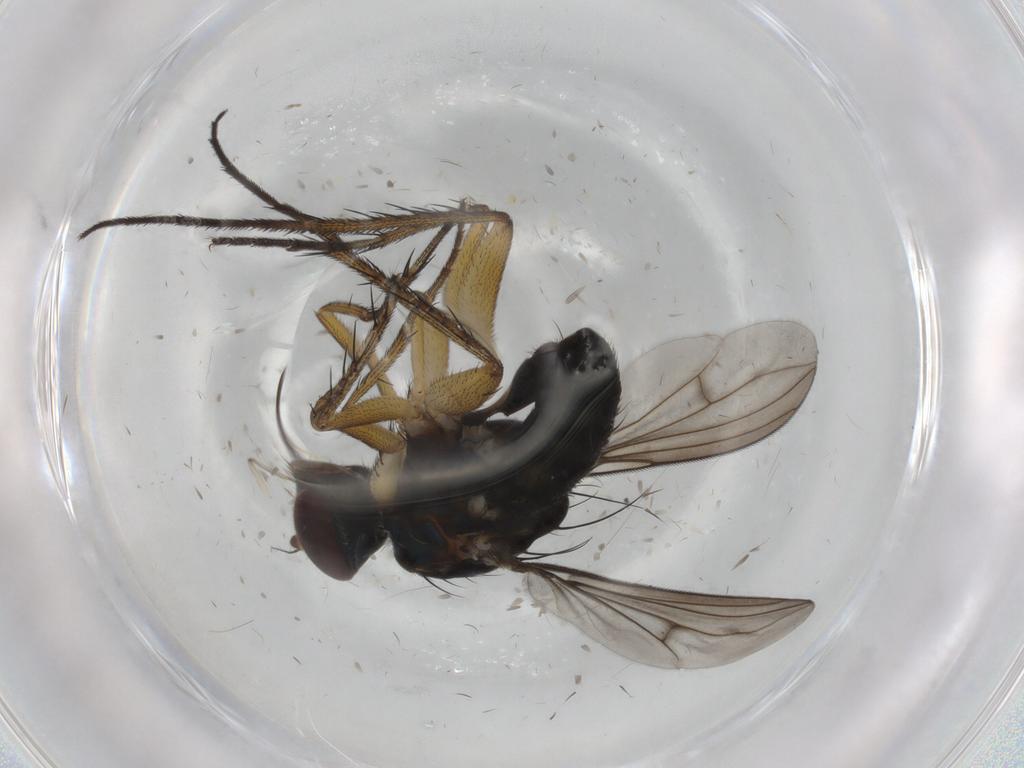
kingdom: Animalia
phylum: Arthropoda
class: Insecta
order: Diptera
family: Dolichopodidae
